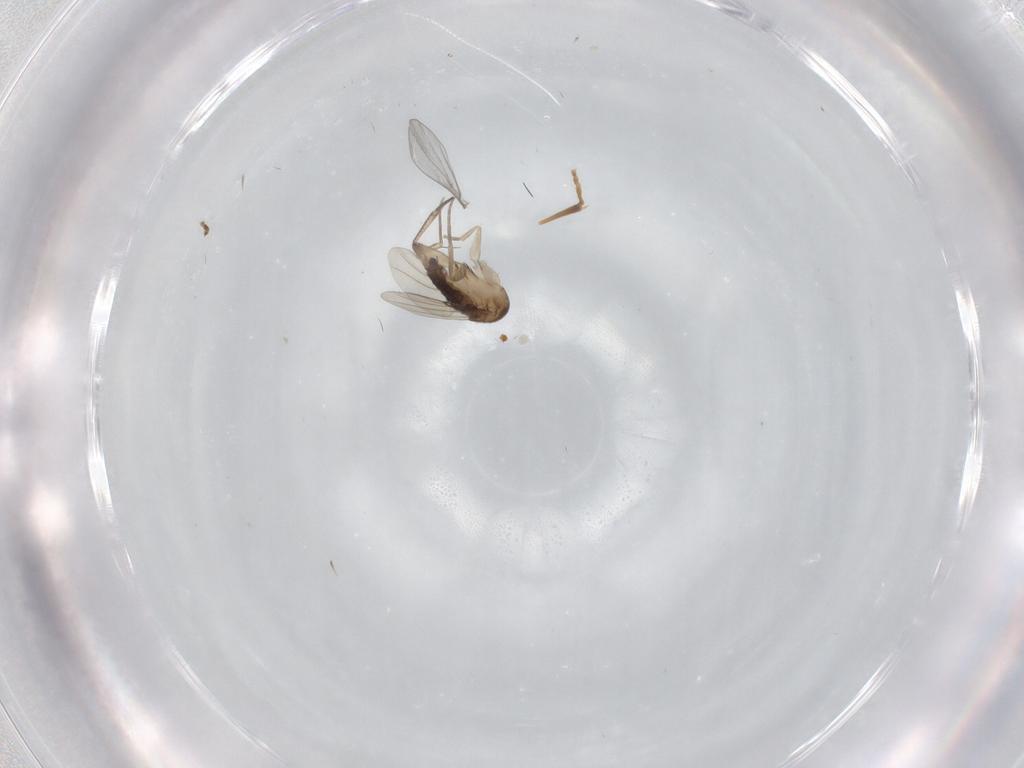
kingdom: Animalia
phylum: Arthropoda
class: Insecta
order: Diptera
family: Phoridae
